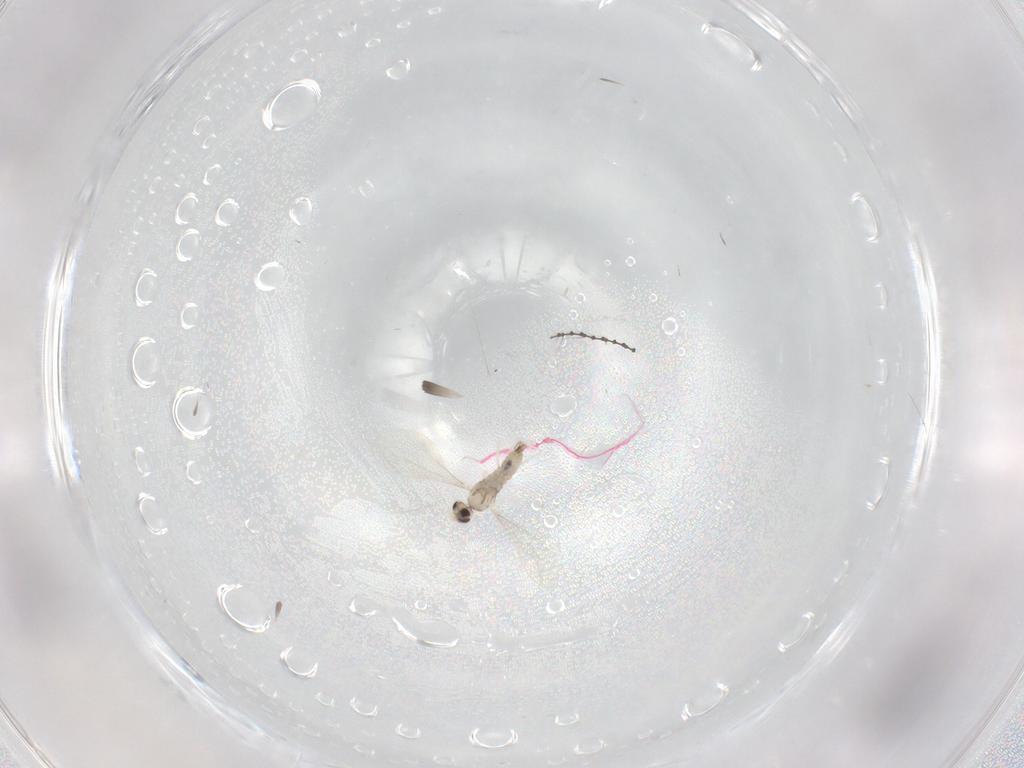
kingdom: Animalia
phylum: Arthropoda
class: Insecta
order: Diptera
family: Cecidomyiidae
